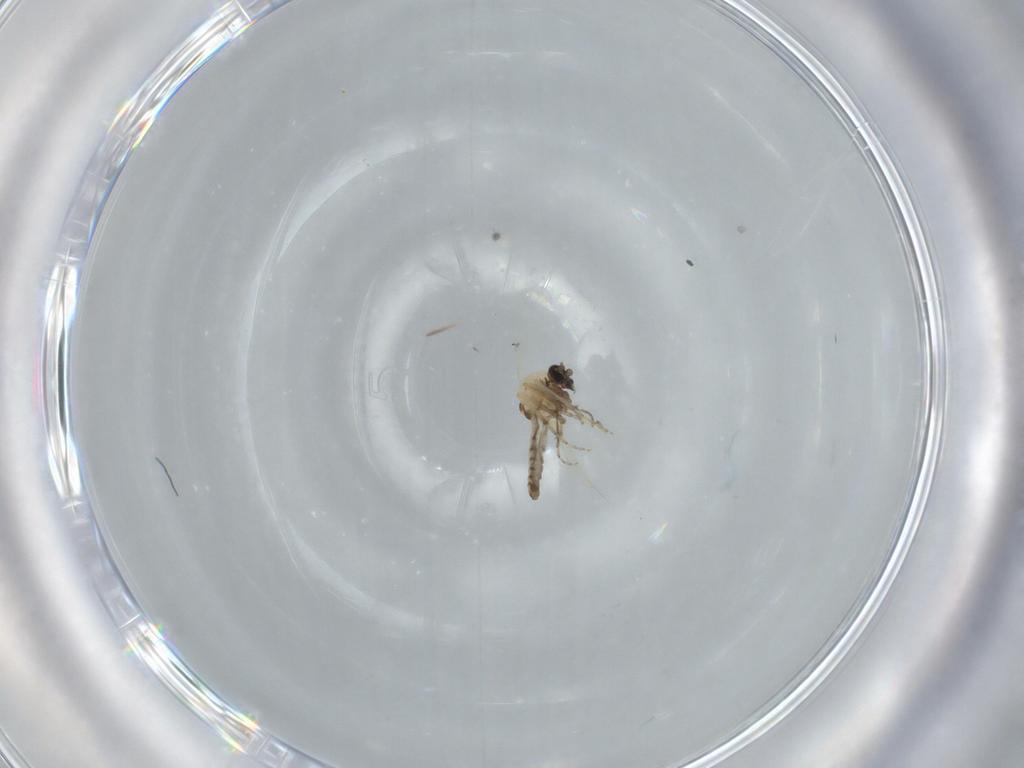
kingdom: Animalia
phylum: Arthropoda
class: Insecta
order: Diptera
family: Ceratopogonidae
